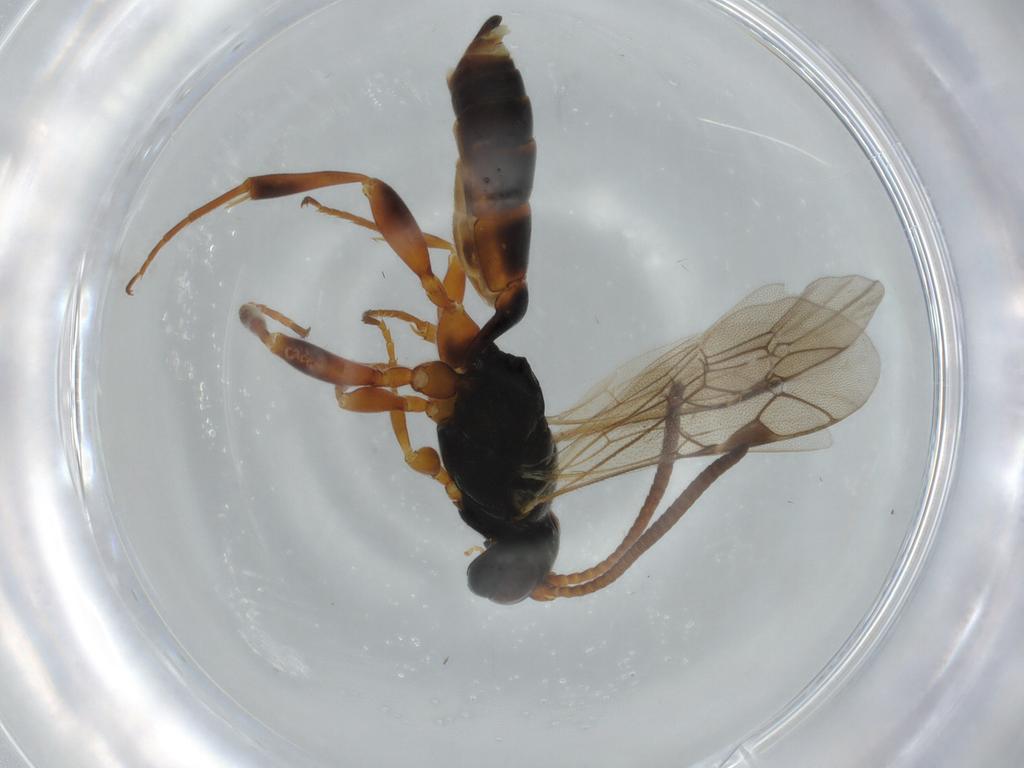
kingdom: Animalia
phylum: Arthropoda
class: Insecta
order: Hymenoptera
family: Ichneumonidae
